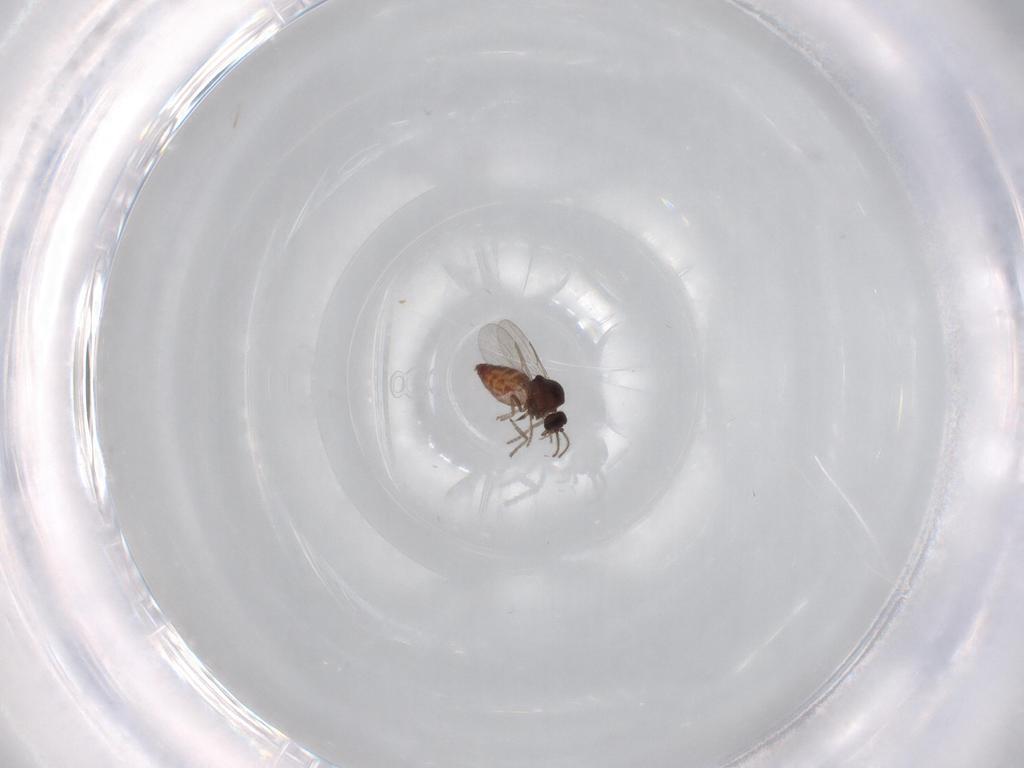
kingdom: Animalia
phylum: Arthropoda
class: Insecta
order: Diptera
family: Ceratopogonidae
